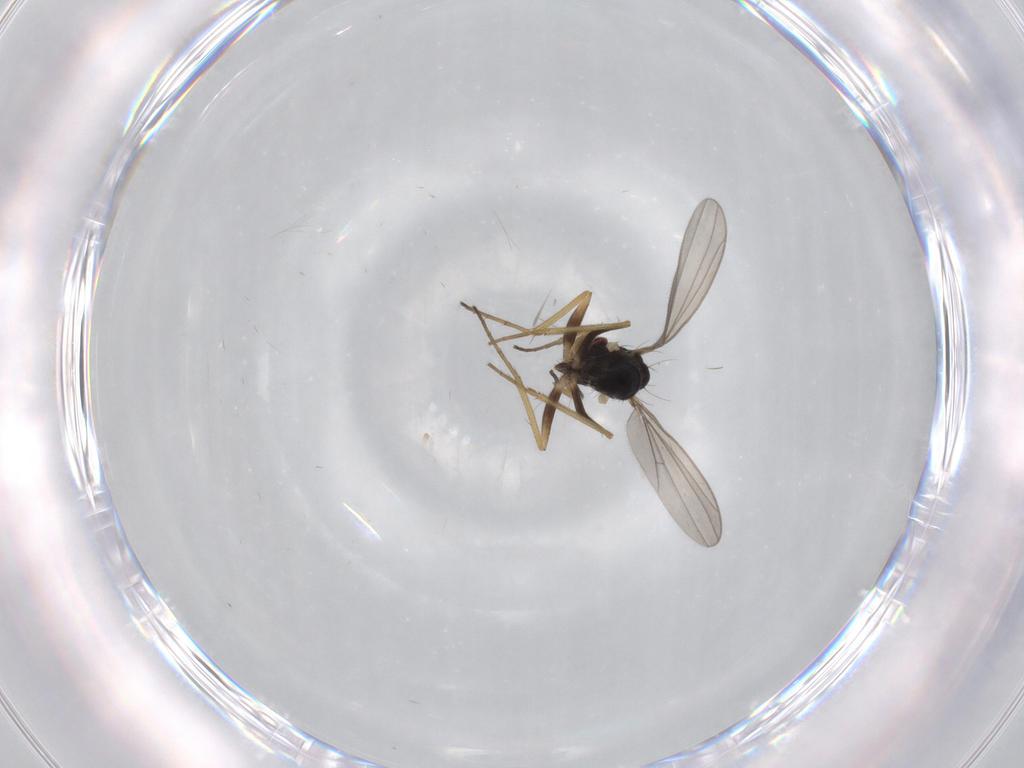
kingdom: Animalia
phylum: Arthropoda
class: Insecta
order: Diptera
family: Dolichopodidae
